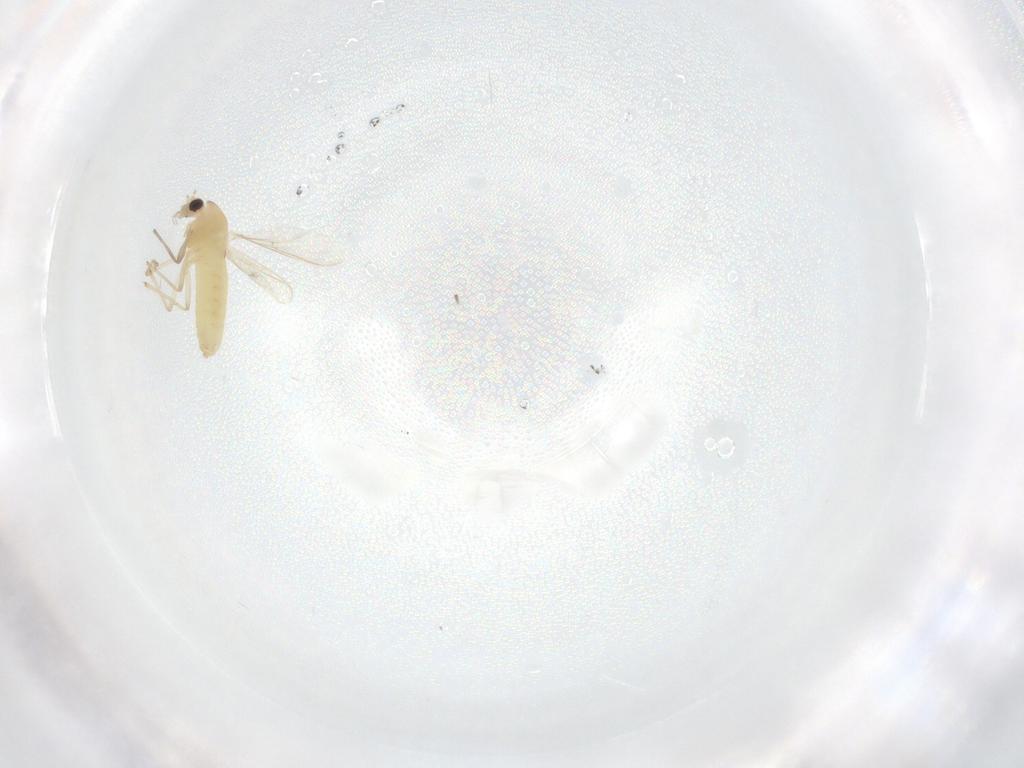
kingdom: Animalia
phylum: Arthropoda
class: Insecta
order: Diptera
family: Chironomidae
